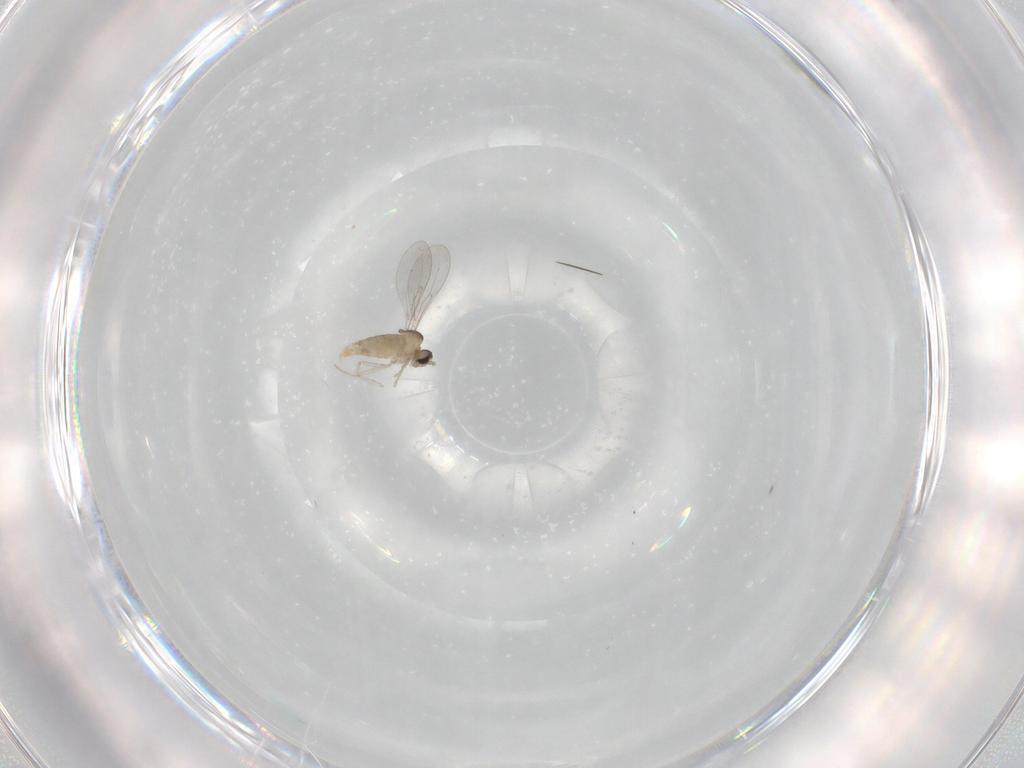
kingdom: Animalia
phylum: Arthropoda
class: Insecta
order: Diptera
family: Cecidomyiidae
